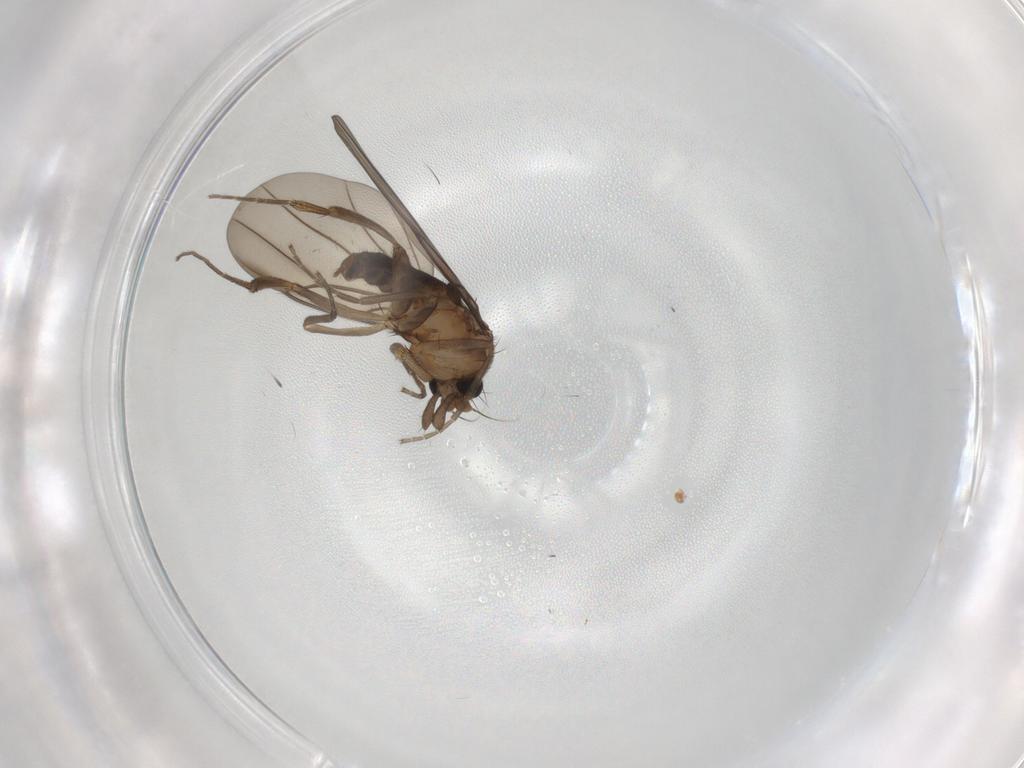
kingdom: Animalia
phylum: Arthropoda
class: Insecta
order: Diptera
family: Phoridae
